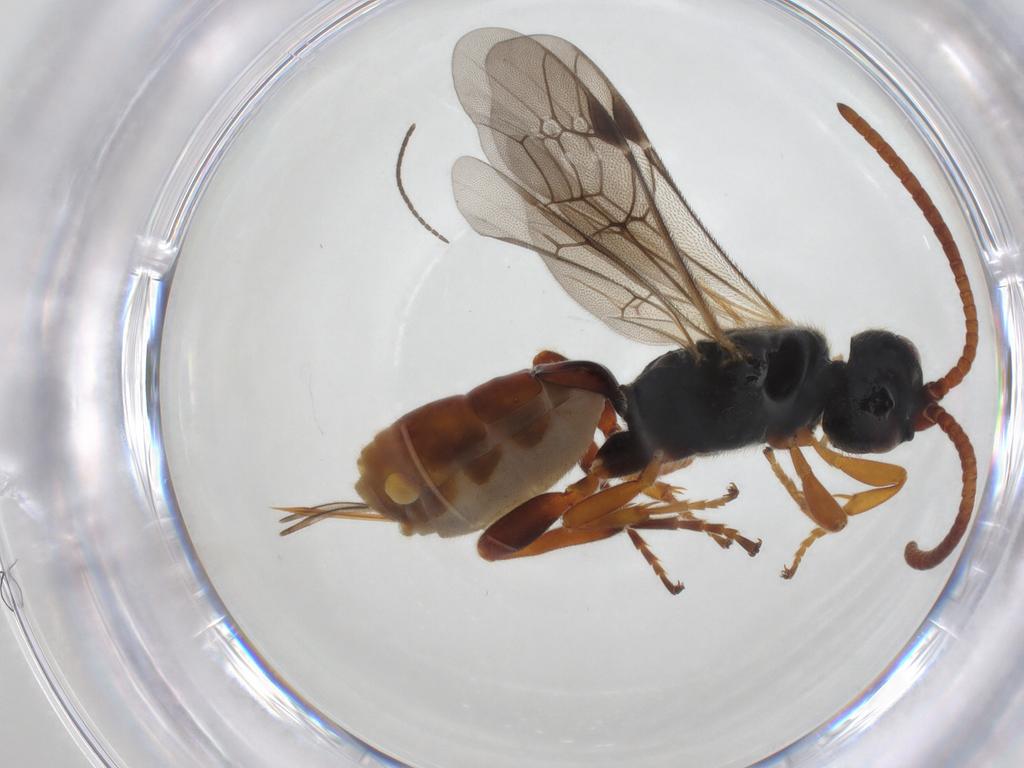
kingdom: Animalia
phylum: Arthropoda
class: Insecta
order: Hymenoptera
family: Ichneumonidae
